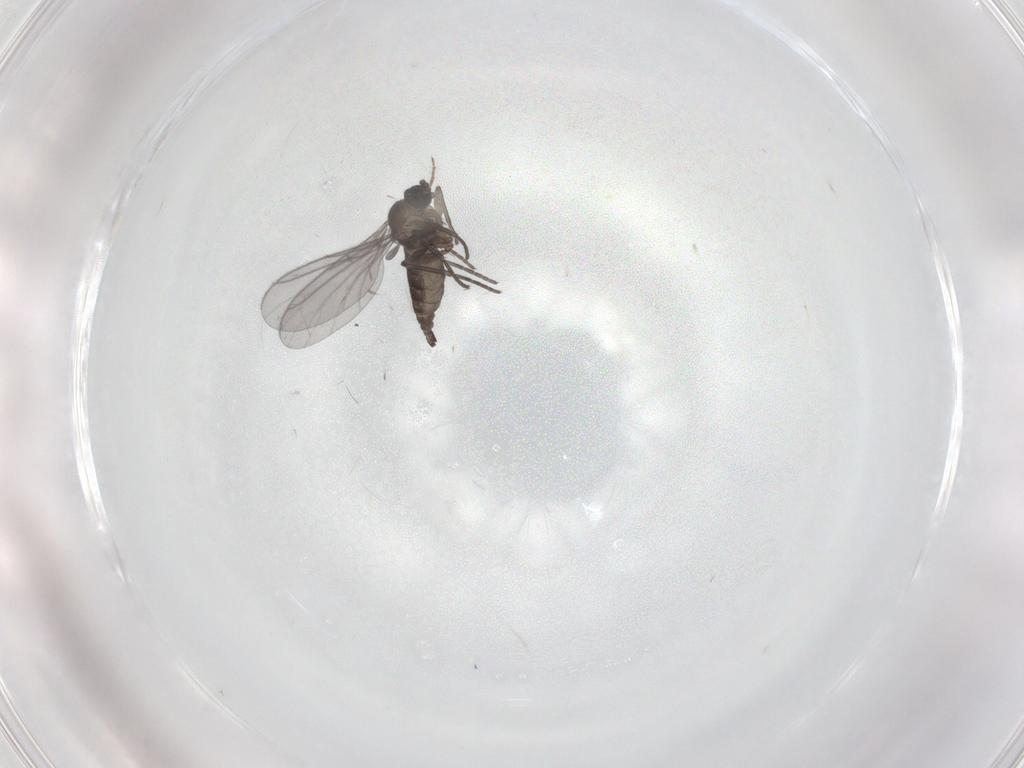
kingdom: Animalia
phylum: Arthropoda
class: Insecta
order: Diptera
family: Chironomidae
